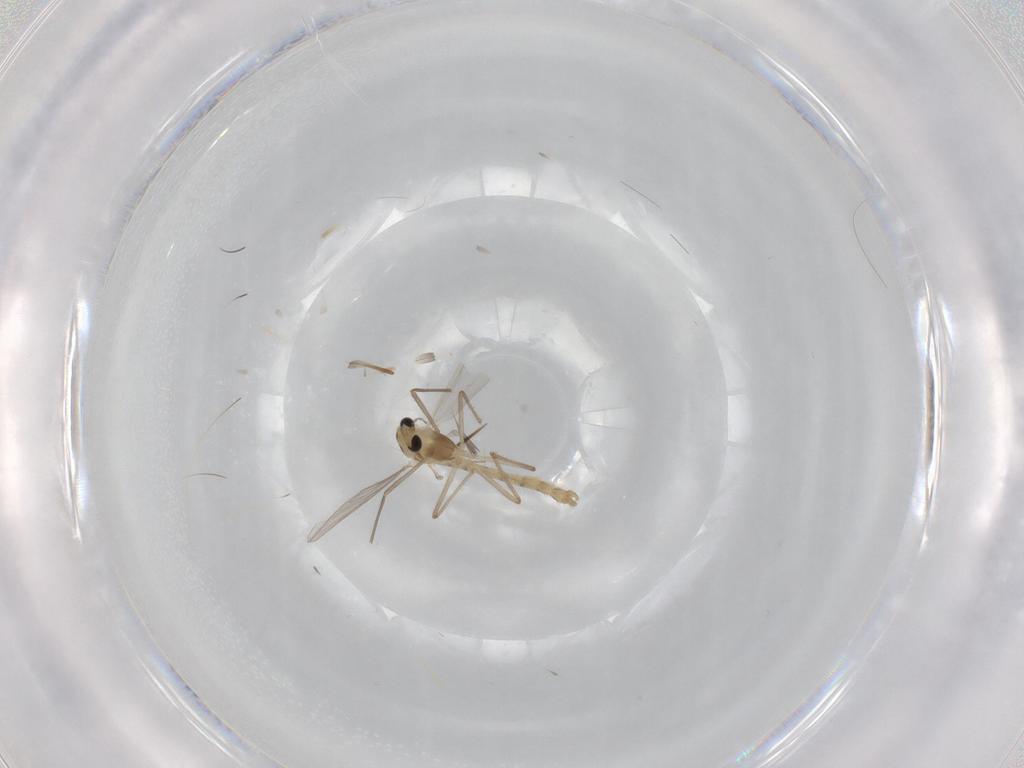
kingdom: Animalia
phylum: Arthropoda
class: Insecta
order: Diptera
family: Chironomidae
